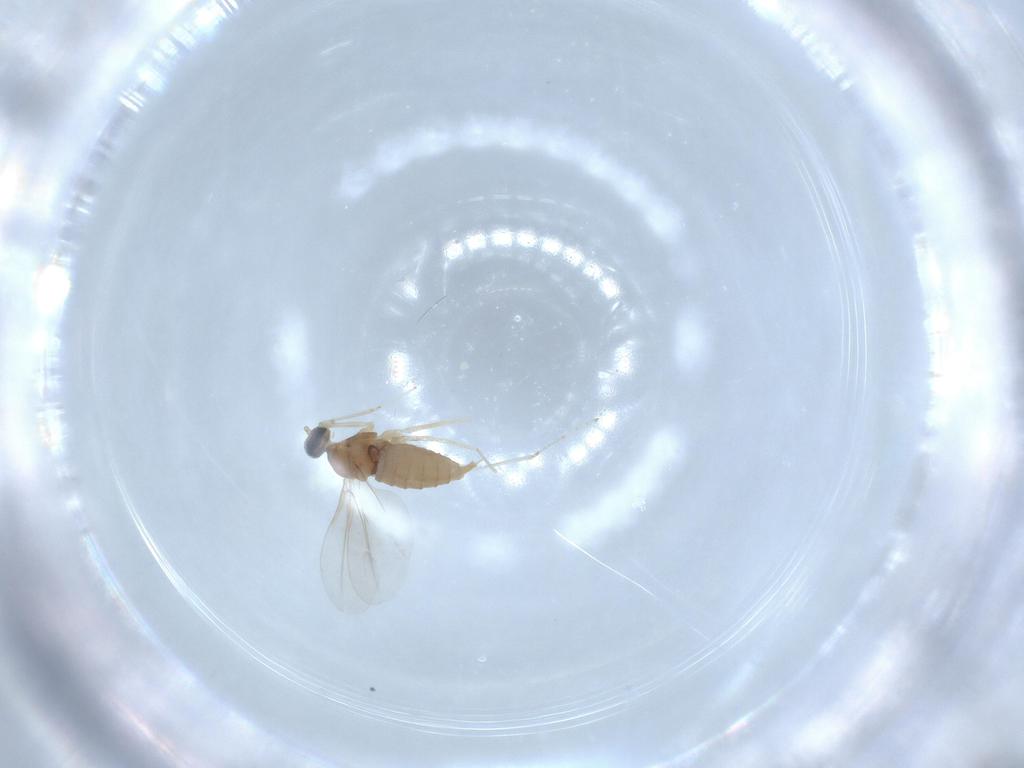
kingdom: Animalia
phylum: Arthropoda
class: Insecta
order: Diptera
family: Cecidomyiidae
